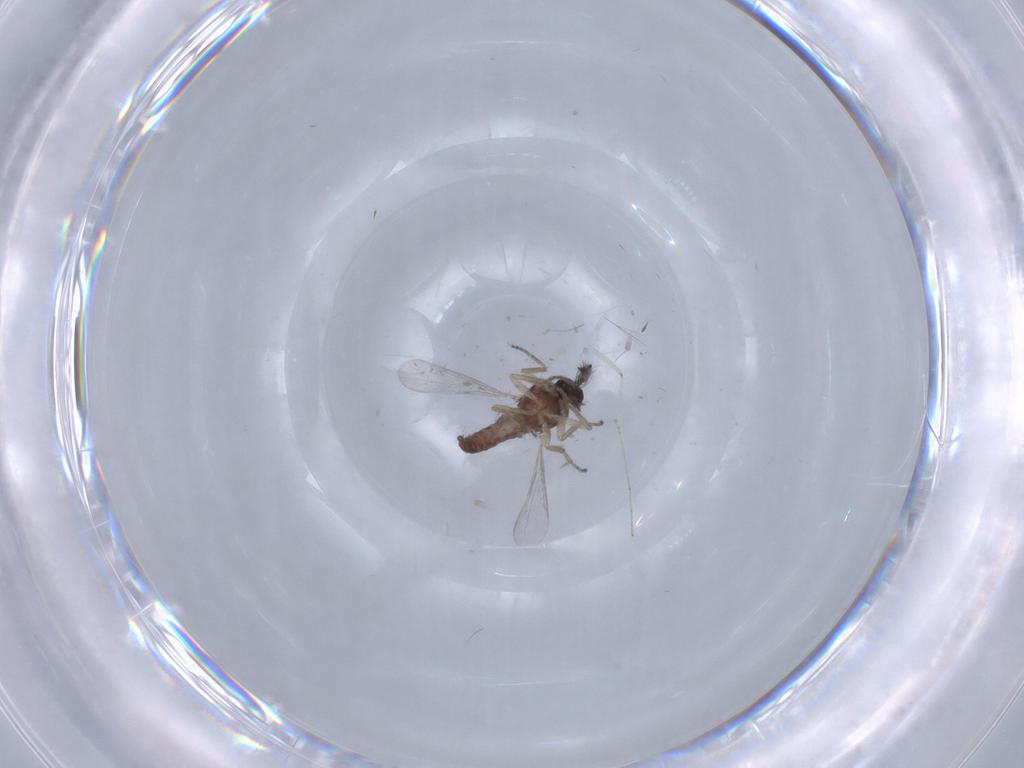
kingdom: Animalia
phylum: Arthropoda
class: Insecta
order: Diptera
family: Ceratopogonidae
